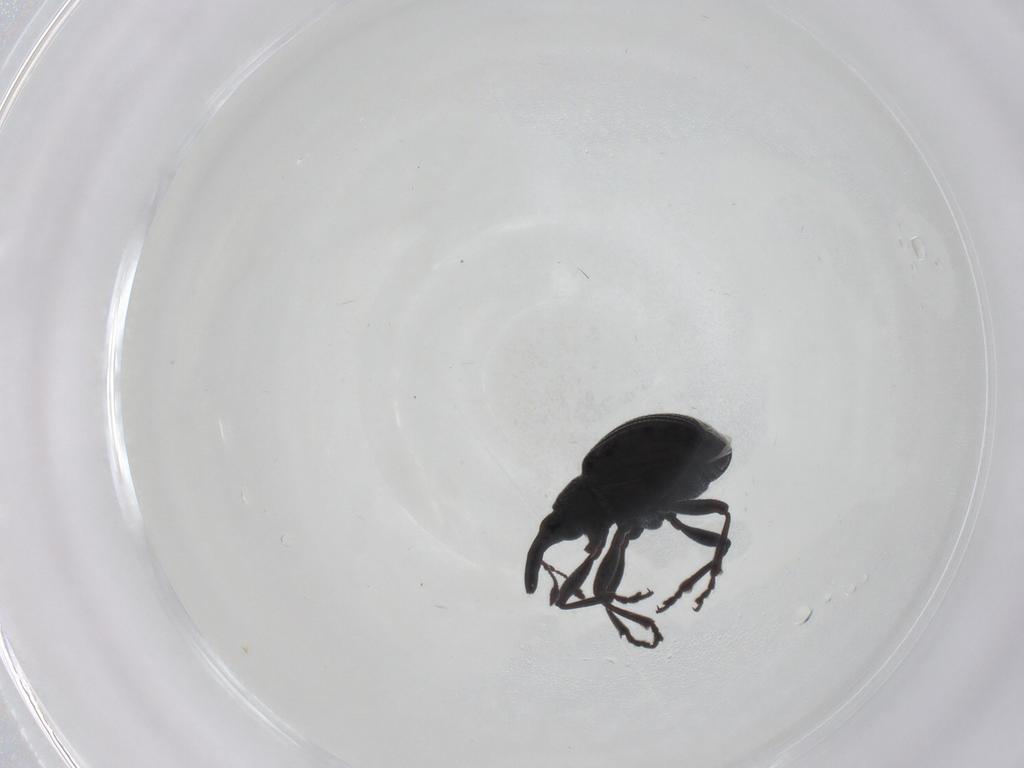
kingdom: Animalia
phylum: Arthropoda
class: Insecta
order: Coleoptera
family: Brentidae
